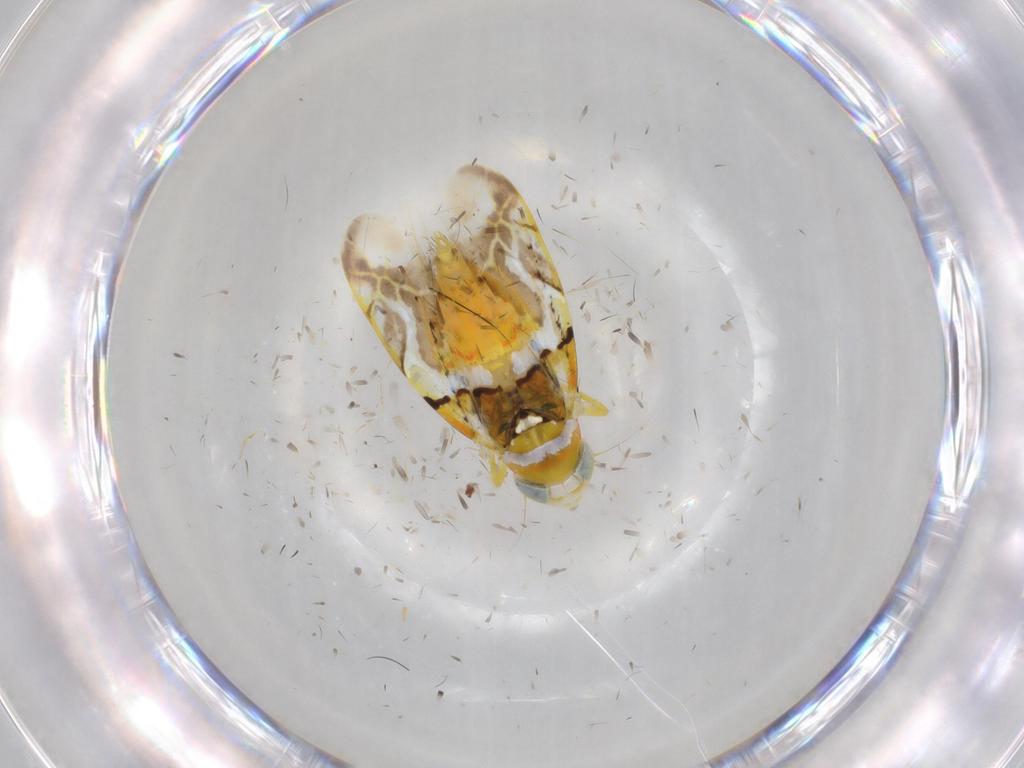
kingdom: Animalia
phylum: Arthropoda
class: Insecta
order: Hemiptera
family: Cicadellidae
